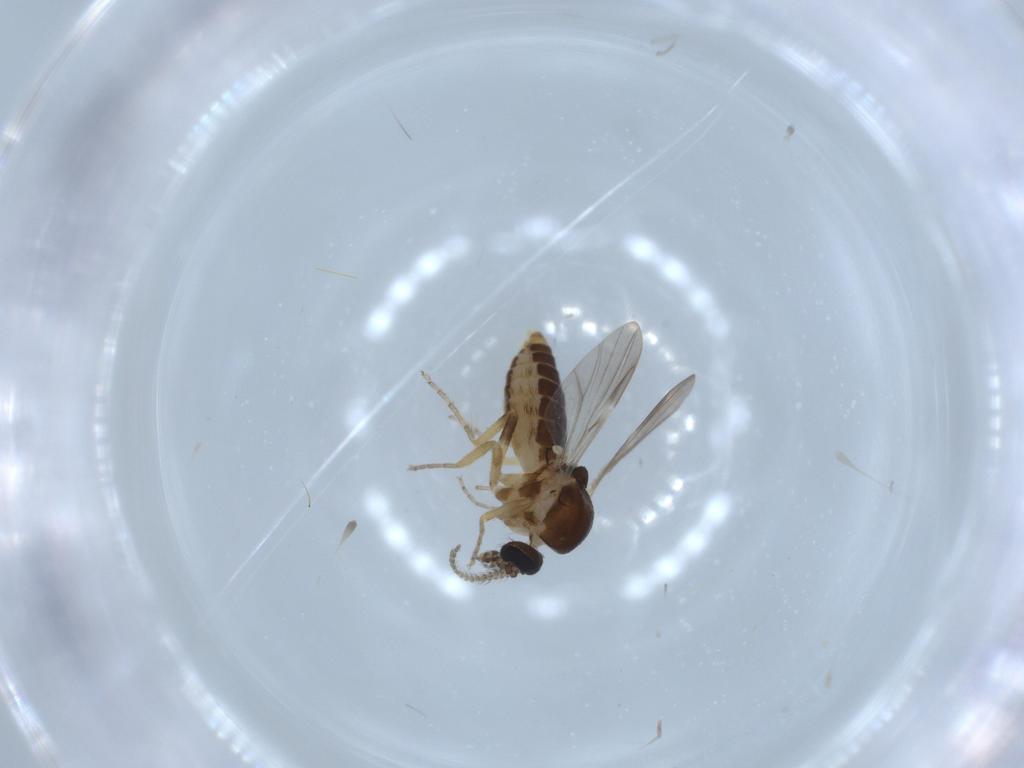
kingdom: Animalia
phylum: Arthropoda
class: Insecta
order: Diptera
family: Ceratopogonidae
